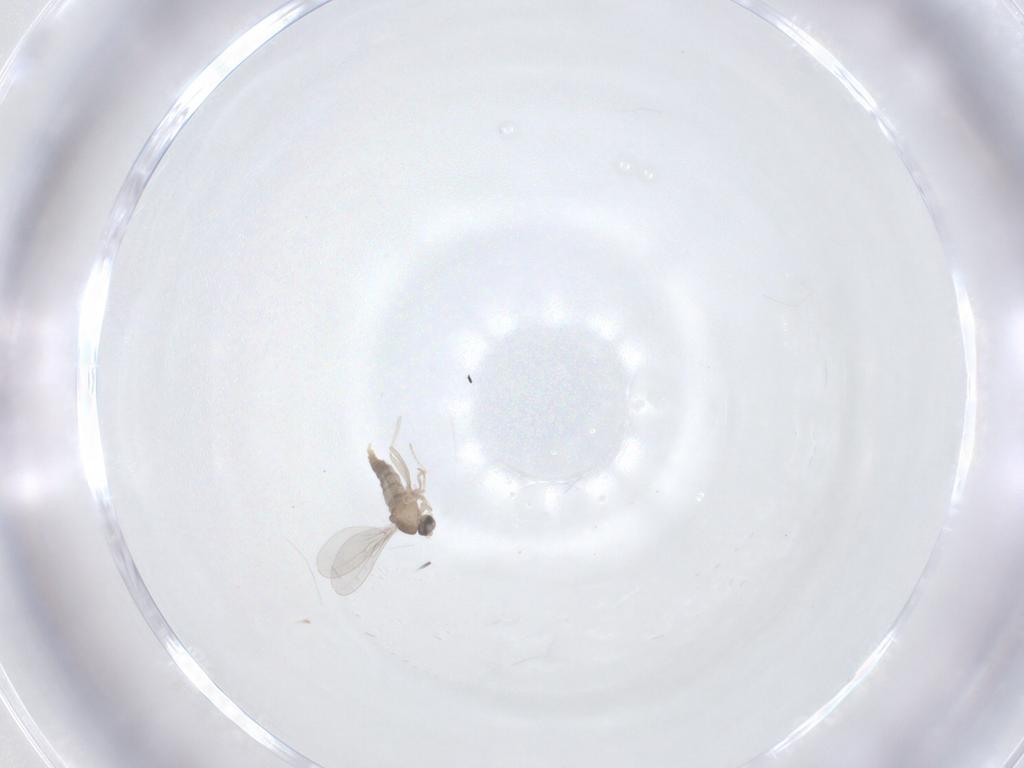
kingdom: Animalia
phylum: Arthropoda
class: Insecta
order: Diptera
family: Cecidomyiidae
